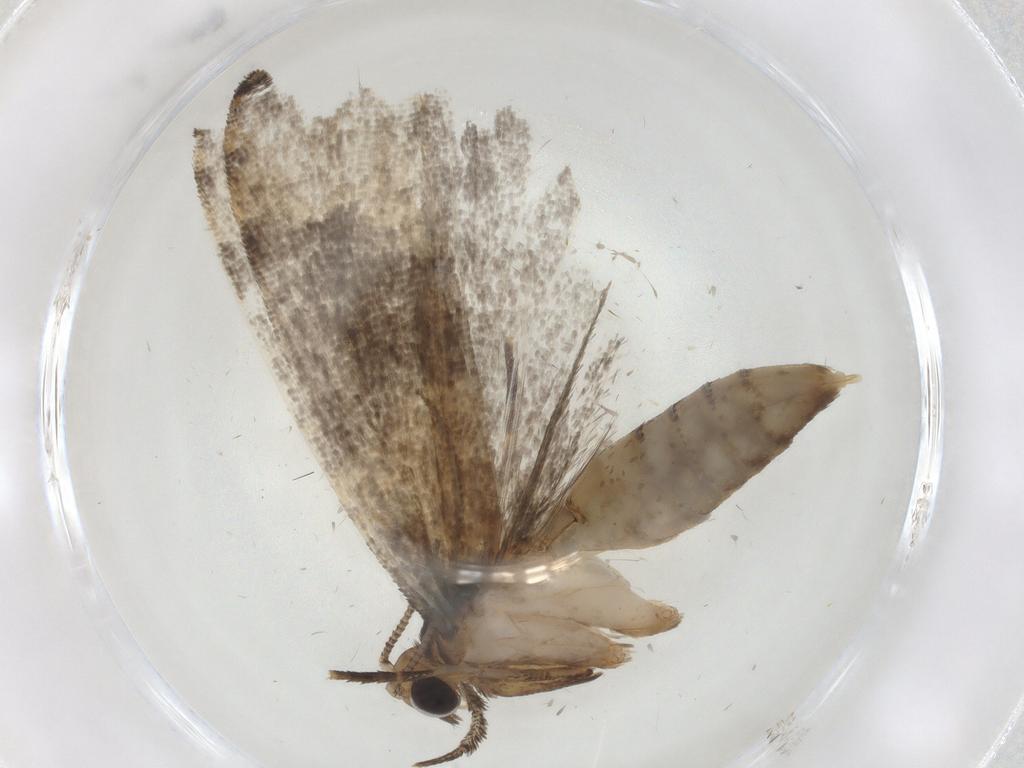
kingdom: Animalia
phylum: Arthropoda
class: Insecta
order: Lepidoptera
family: Tineidae
